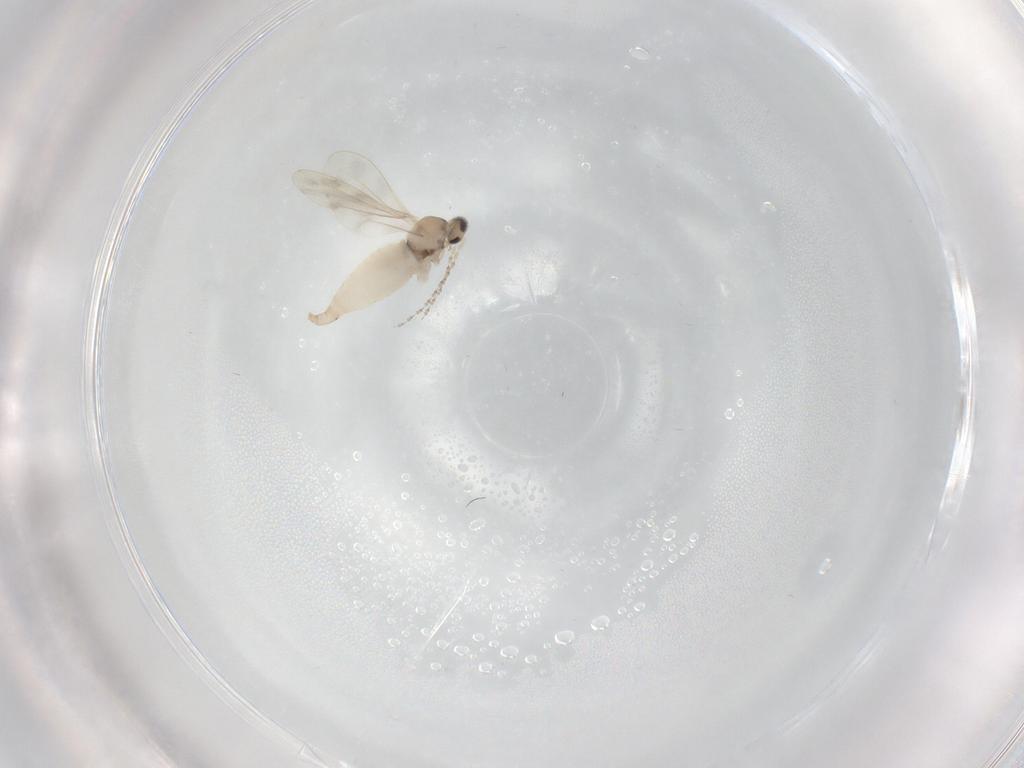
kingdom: Animalia
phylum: Arthropoda
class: Insecta
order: Diptera
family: Cecidomyiidae
